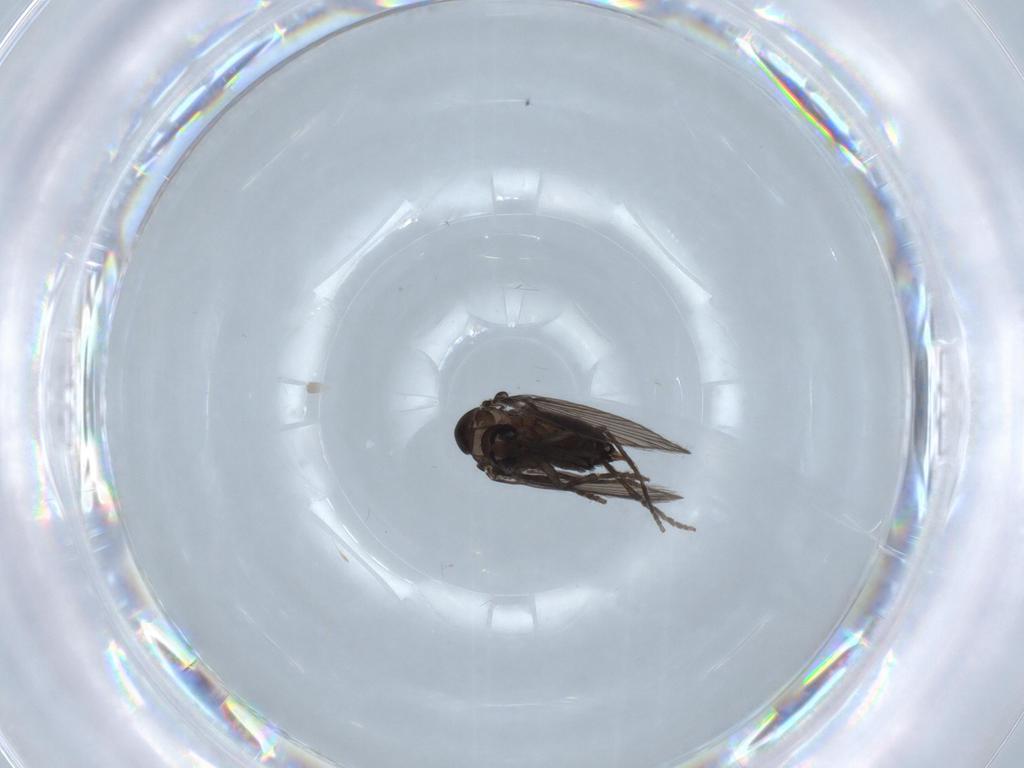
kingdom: Animalia
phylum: Arthropoda
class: Insecta
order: Diptera
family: Psychodidae
